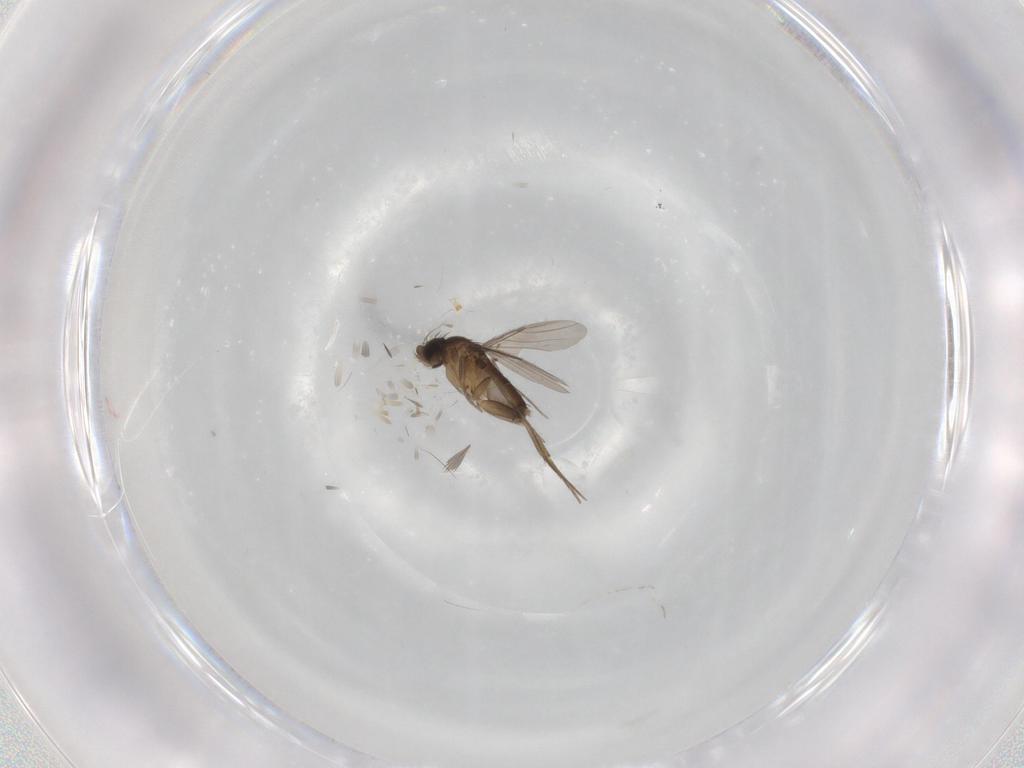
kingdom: Animalia
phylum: Arthropoda
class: Insecta
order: Diptera
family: Phoridae
